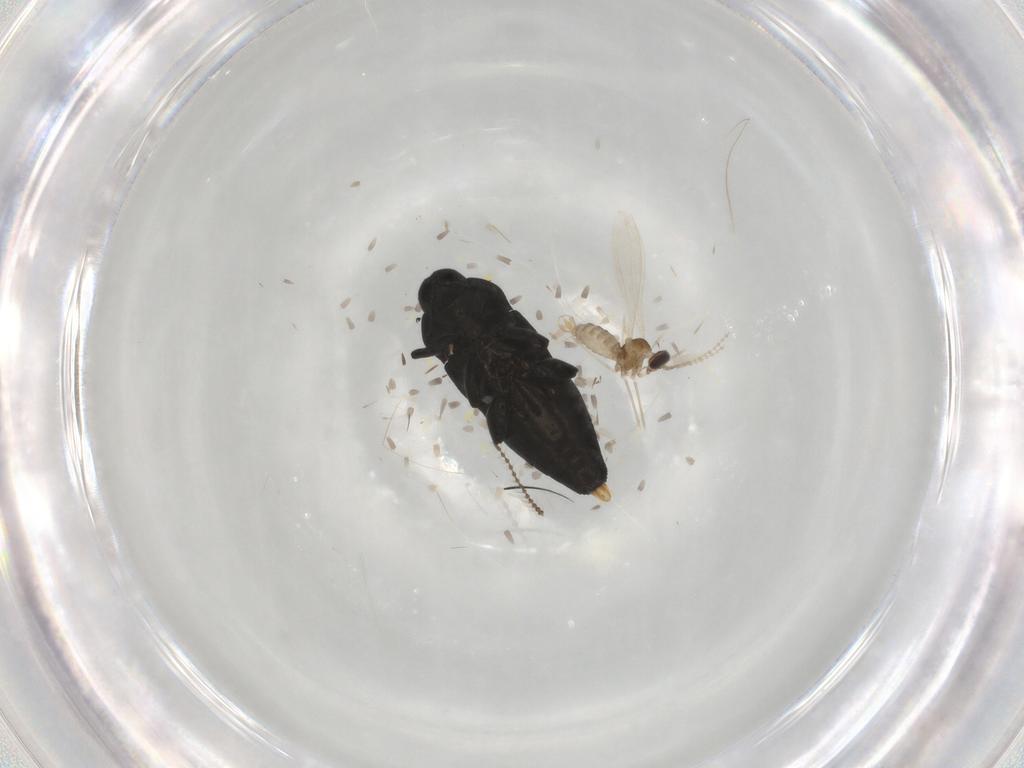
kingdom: Animalia
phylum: Arthropoda
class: Insecta
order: Coleoptera
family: Buprestidae
